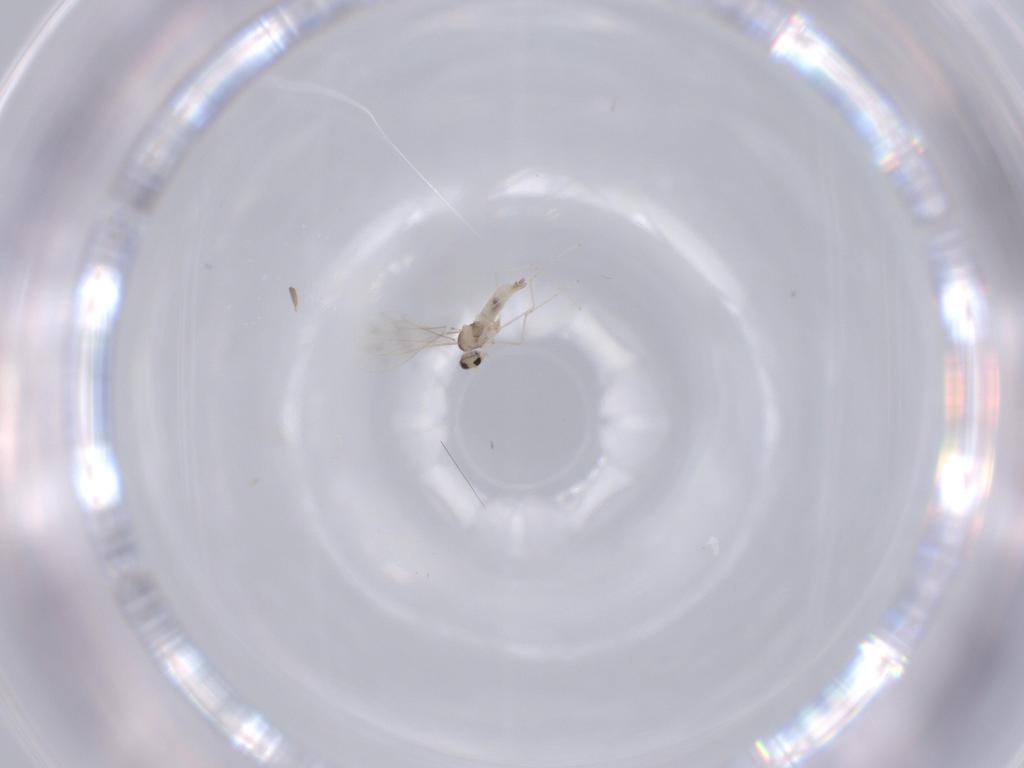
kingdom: Animalia
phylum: Arthropoda
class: Insecta
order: Diptera
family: Cecidomyiidae
